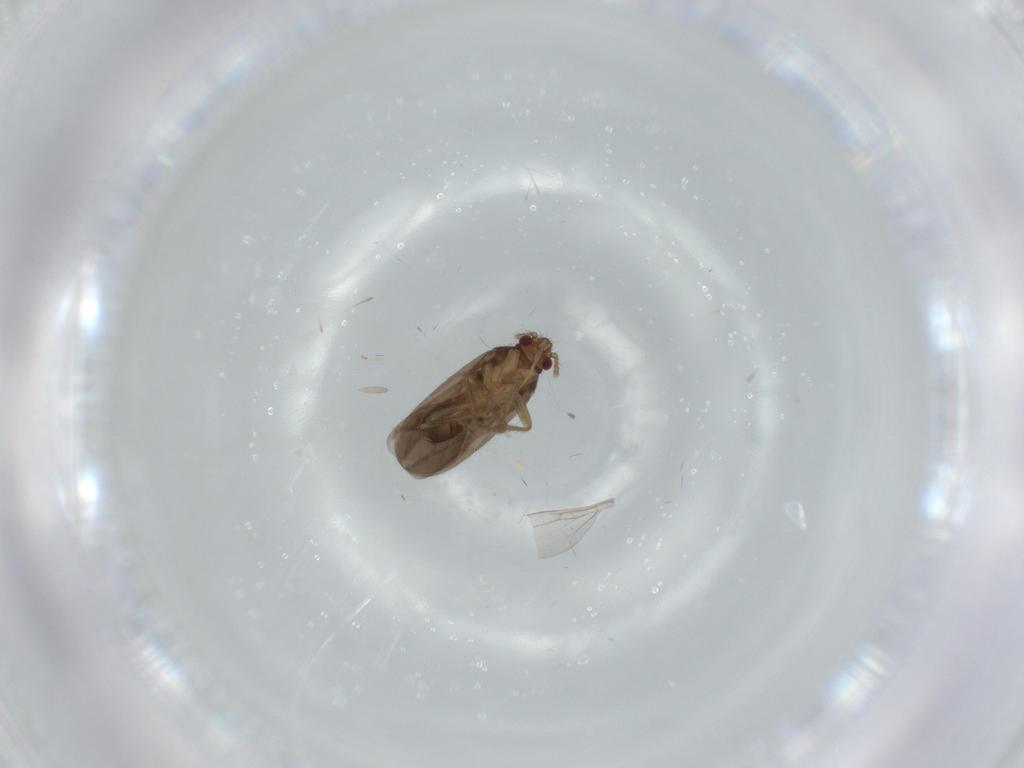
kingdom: Animalia
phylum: Arthropoda
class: Insecta
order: Hemiptera
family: Ceratocombidae
